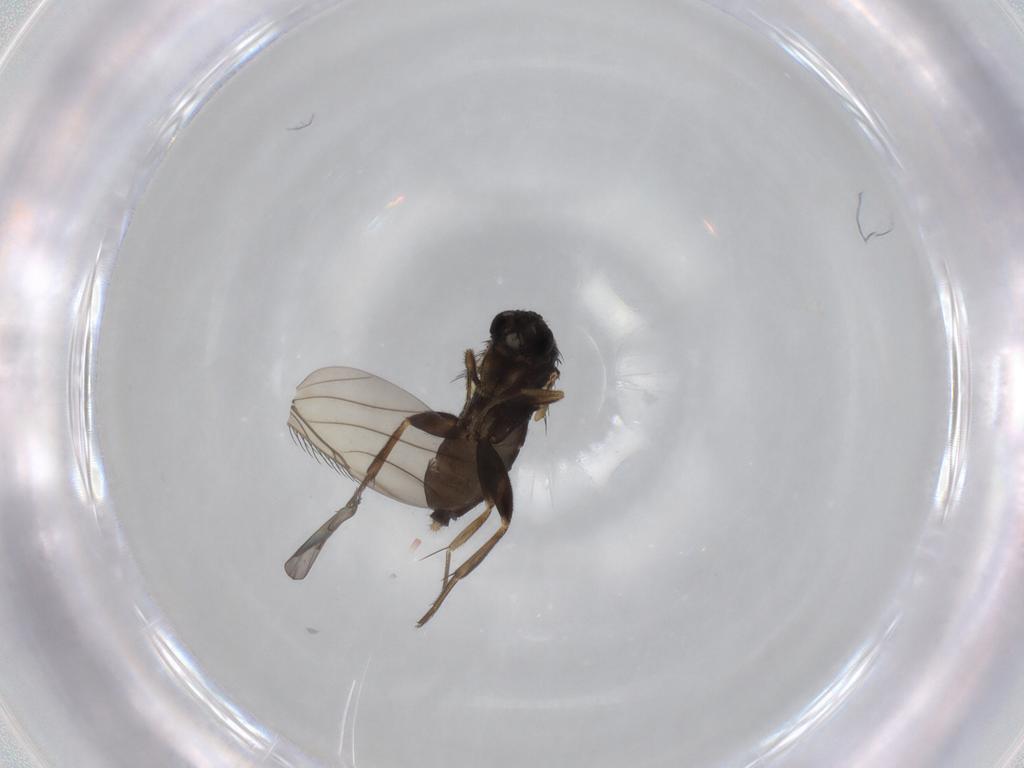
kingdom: Animalia
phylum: Arthropoda
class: Insecta
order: Diptera
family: Phoridae
